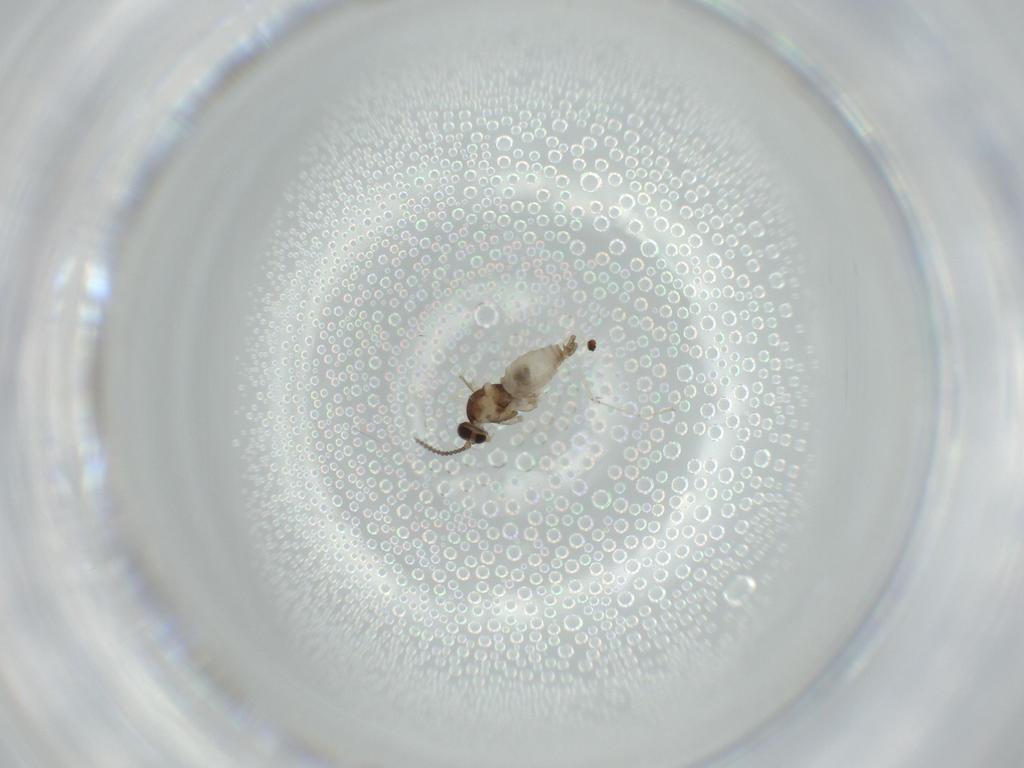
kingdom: Animalia
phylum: Arthropoda
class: Insecta
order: Diptera
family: Cecidomyiidae
